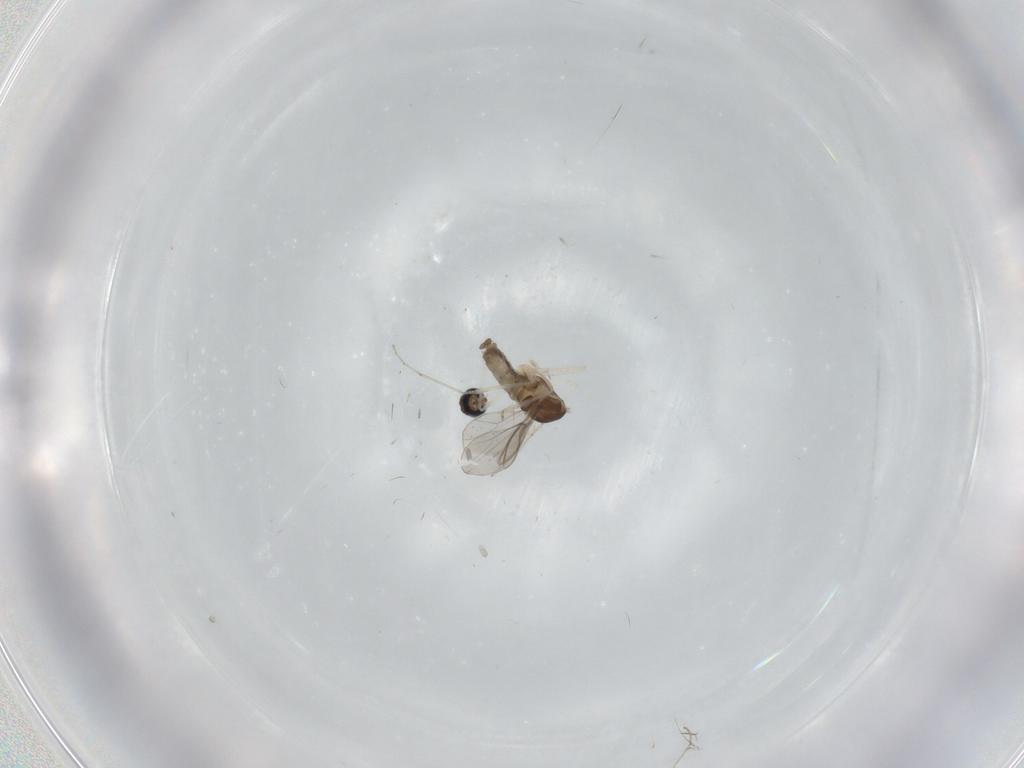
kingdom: Animalia
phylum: Arthropoda
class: Insecta
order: Diptera
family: Cecidomyiidae
